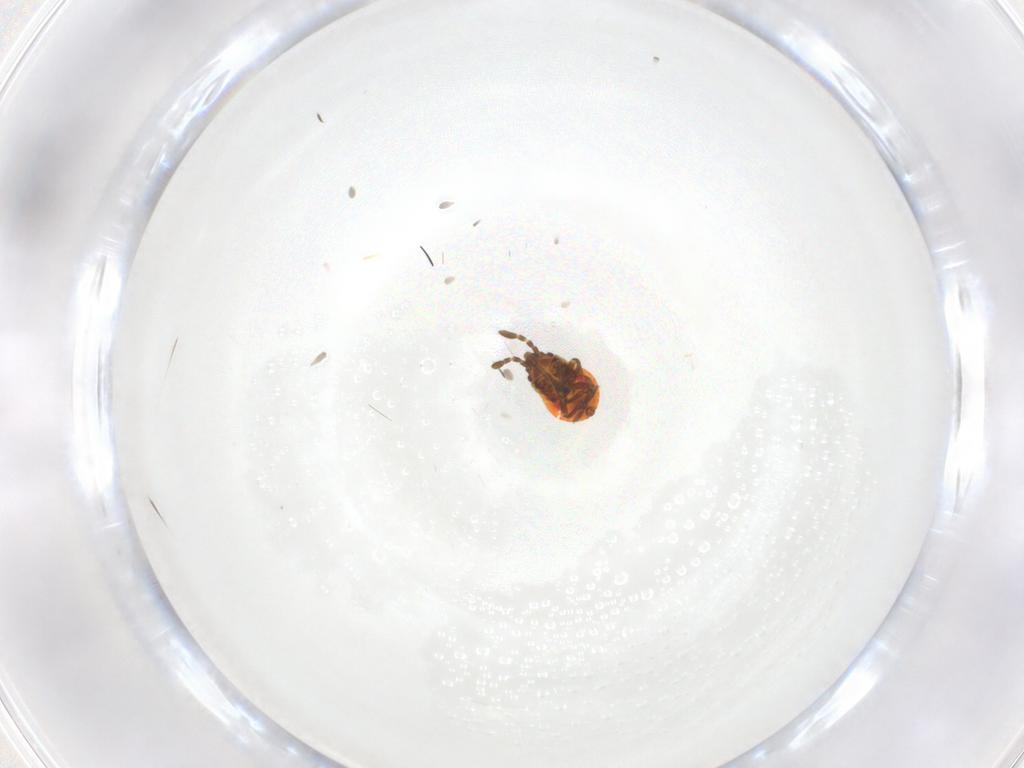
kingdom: Animalia
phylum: Arthropoda
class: Insecta
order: Hemiptera
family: Lygaeidae
